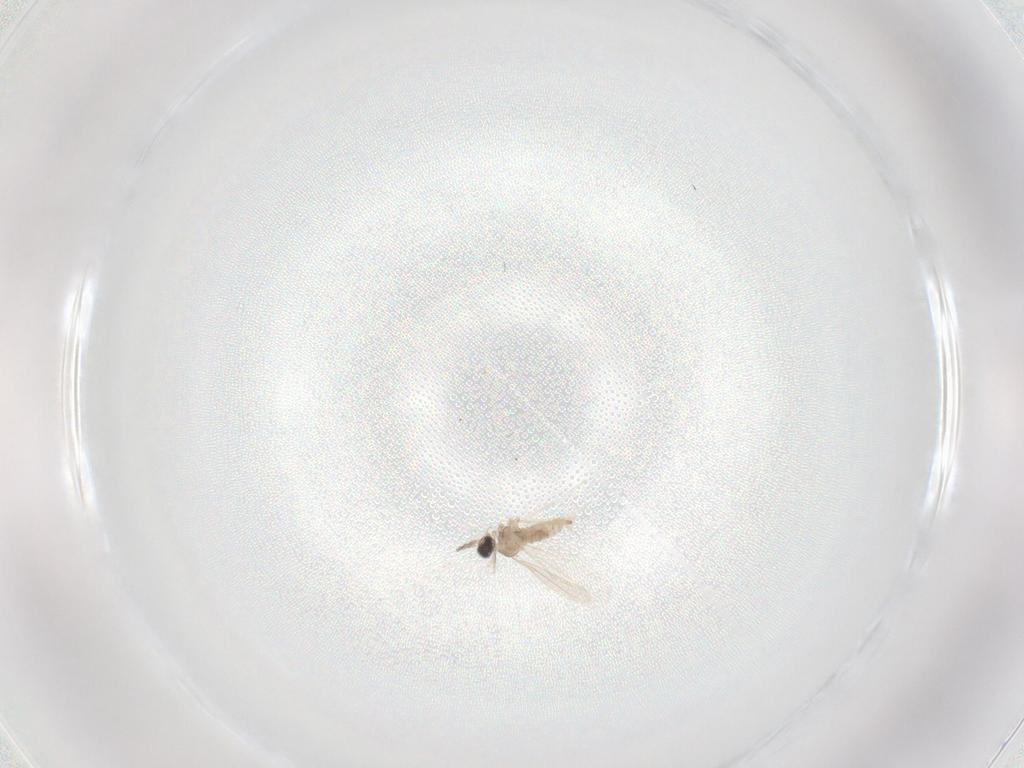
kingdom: Animalia
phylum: Arthropoda
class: Insecta
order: Diptera
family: Cecidomyiidae
